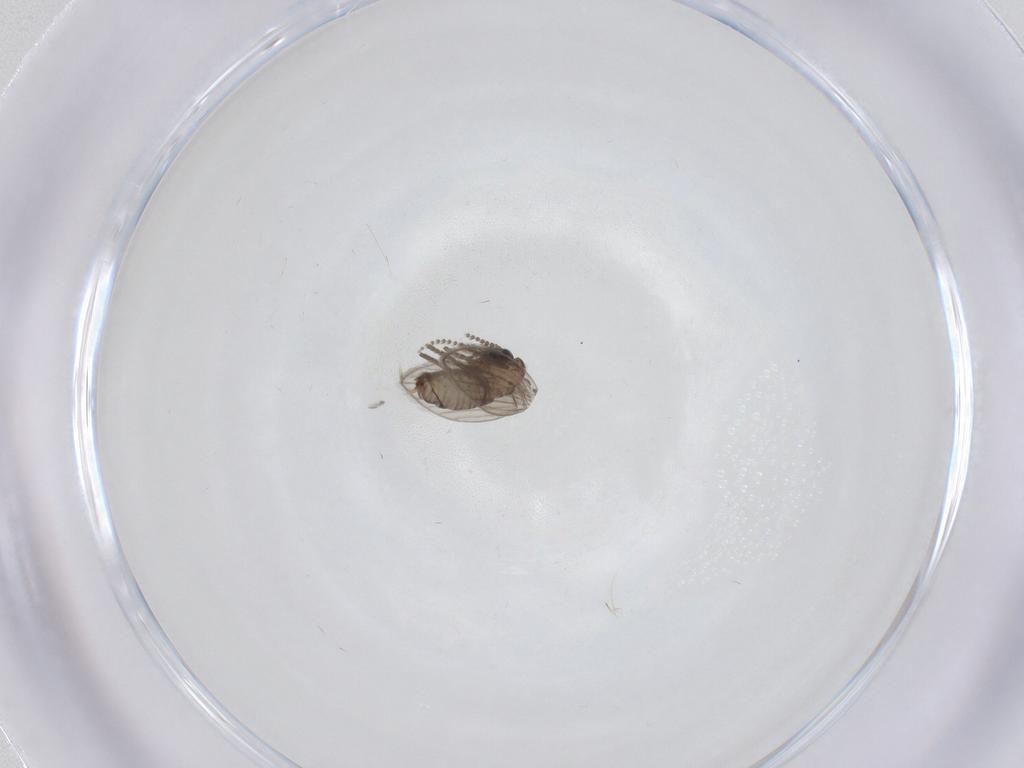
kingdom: Animalia
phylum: Arthropoda
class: Insecta
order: Diptera
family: Psychodidae
